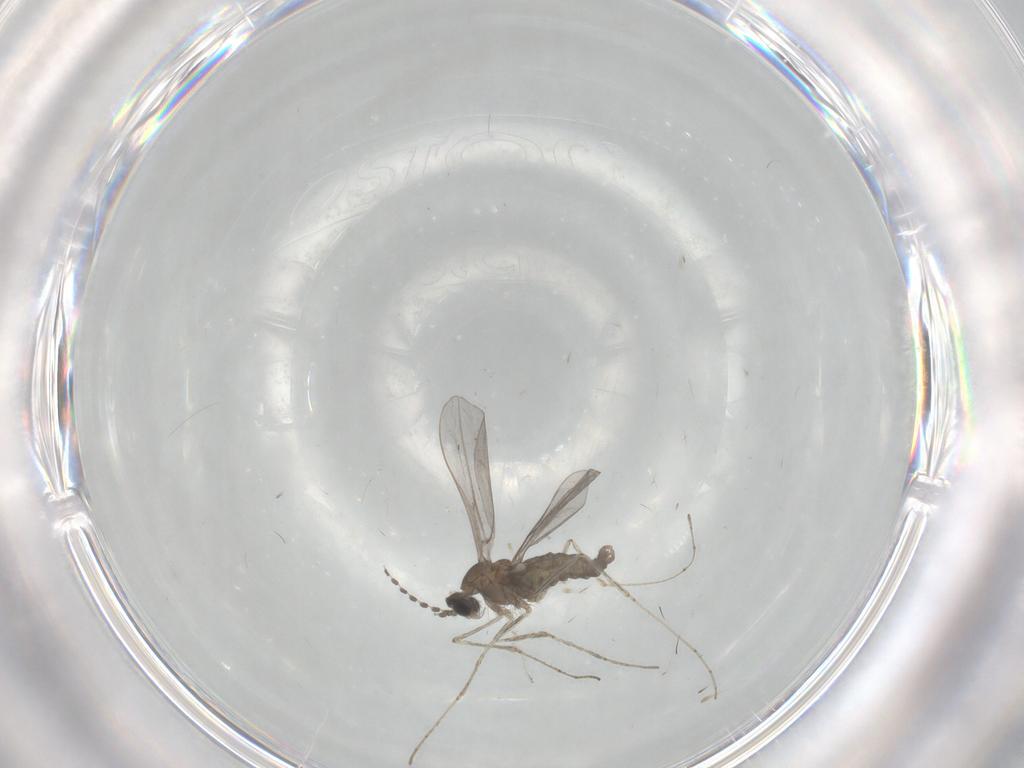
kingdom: Animalia
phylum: Arthropoda
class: Insecta
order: Diptera
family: Cecidomyiidae
